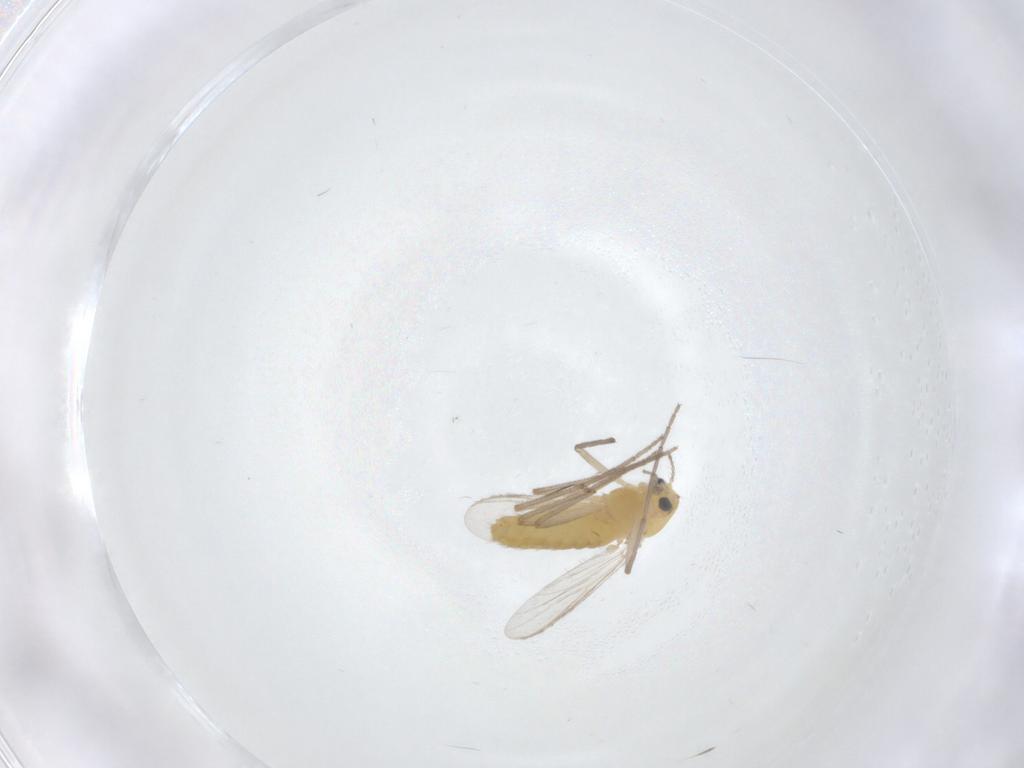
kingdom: Animalia
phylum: Arthropoda
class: Insecta
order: Diptera
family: Chironomidae
